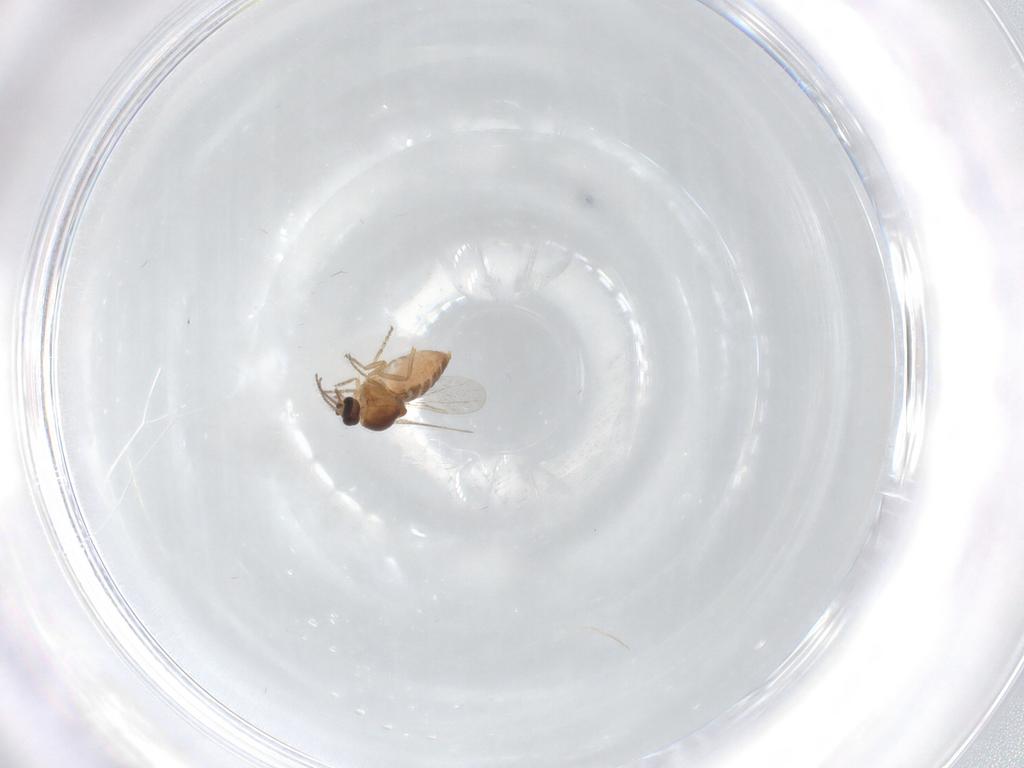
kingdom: Animalia
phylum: Arthropoda
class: Insecta
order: Diptera
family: Ceratopogonidae
